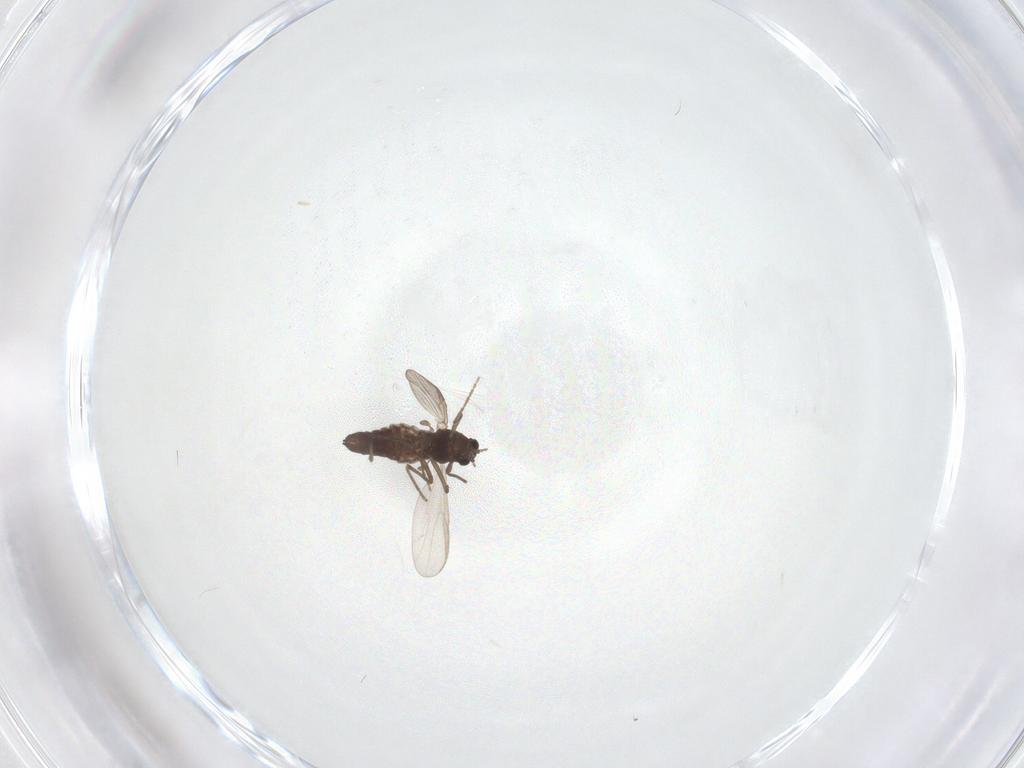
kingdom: Animalia
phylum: Arthropoda
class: Insecta
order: Diptera
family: Chironomidae
